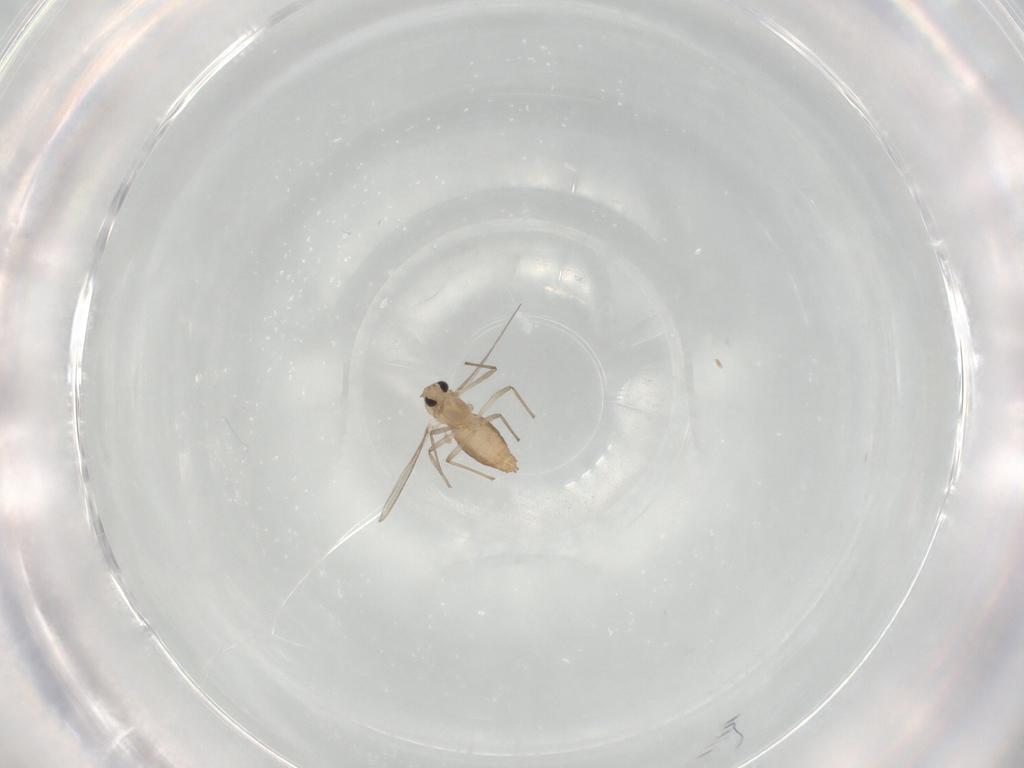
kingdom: Animalia
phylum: Arthropoda
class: Insecta
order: Diptera
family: Chironomidae
